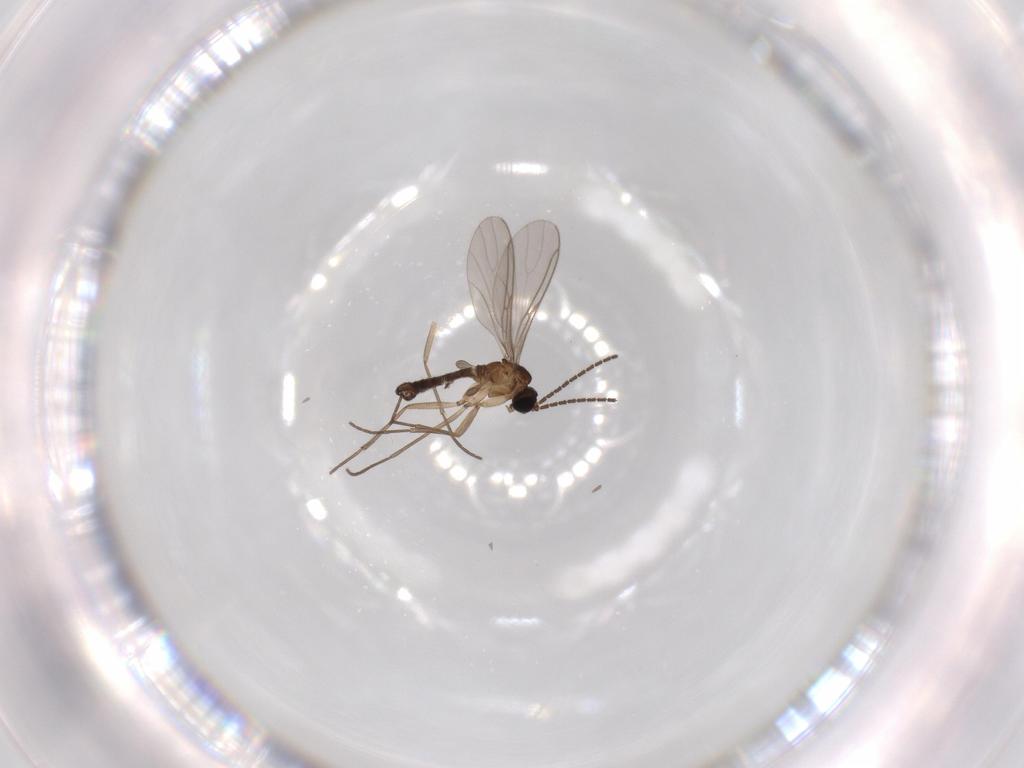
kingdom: Animalia
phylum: Arthropoda
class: Insecta
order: Diptera
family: Sciaridae
